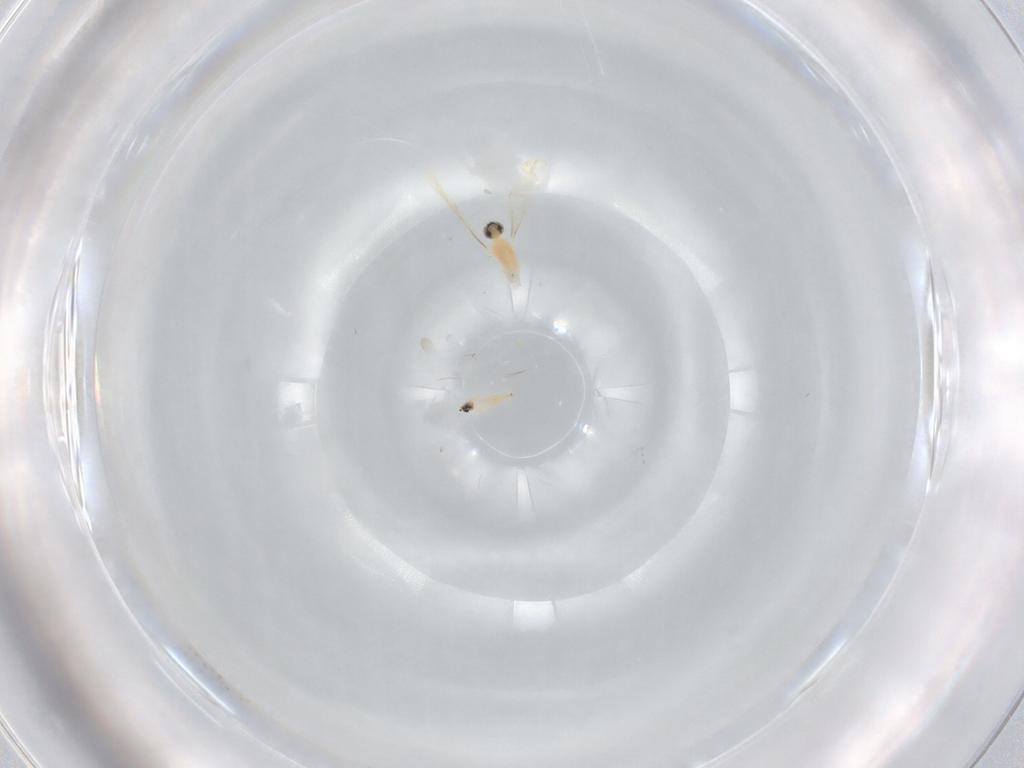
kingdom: Animalia
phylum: Arthropoda
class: Insecta
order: Diptera
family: Cecidomyiidae
